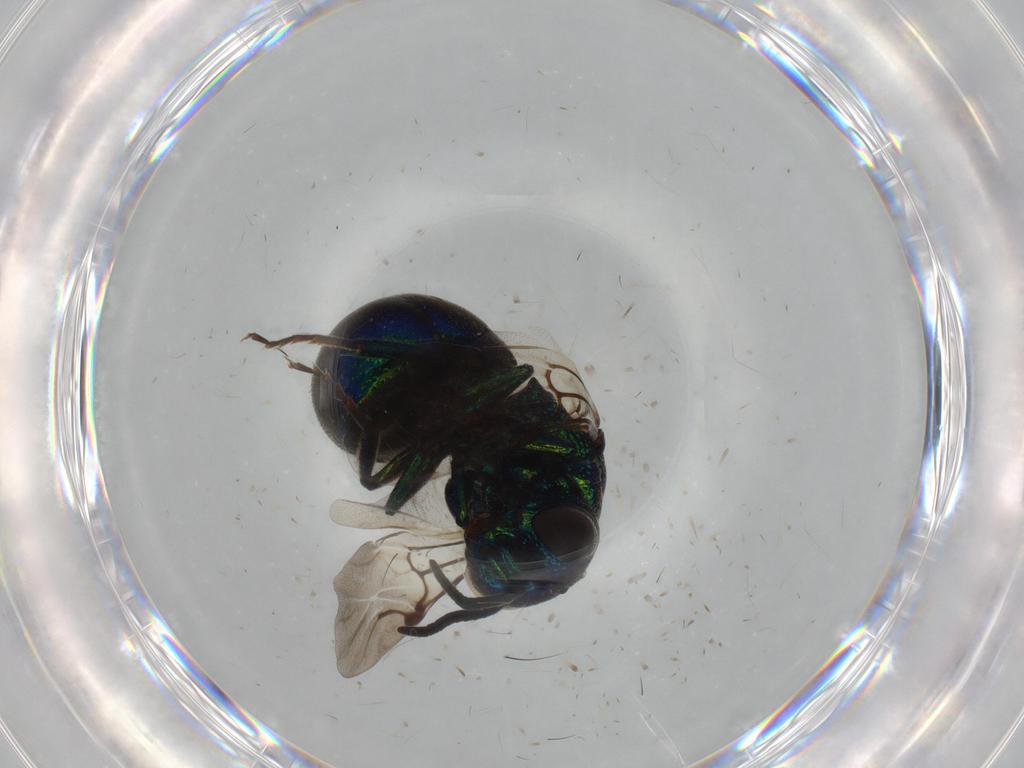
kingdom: Animalia
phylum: Arthropoda
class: Insecta
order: Hymenoptera
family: Chrysididae
